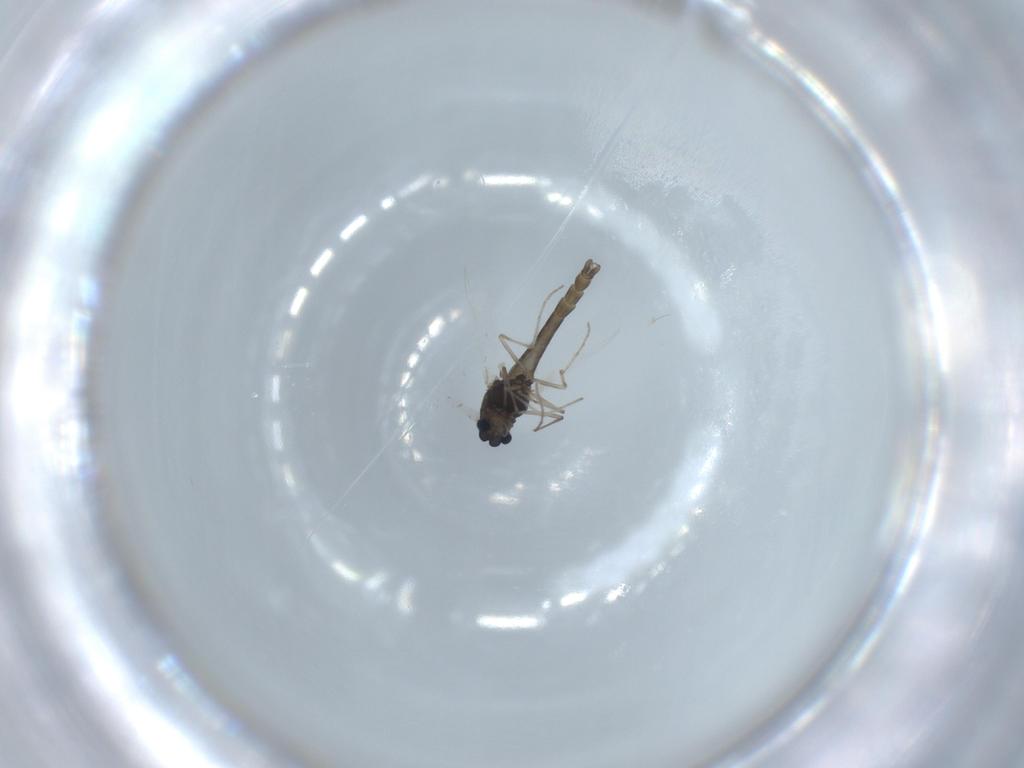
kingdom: Animalia
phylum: Arthropoda
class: Insecta
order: Diptera
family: Chironomidae
